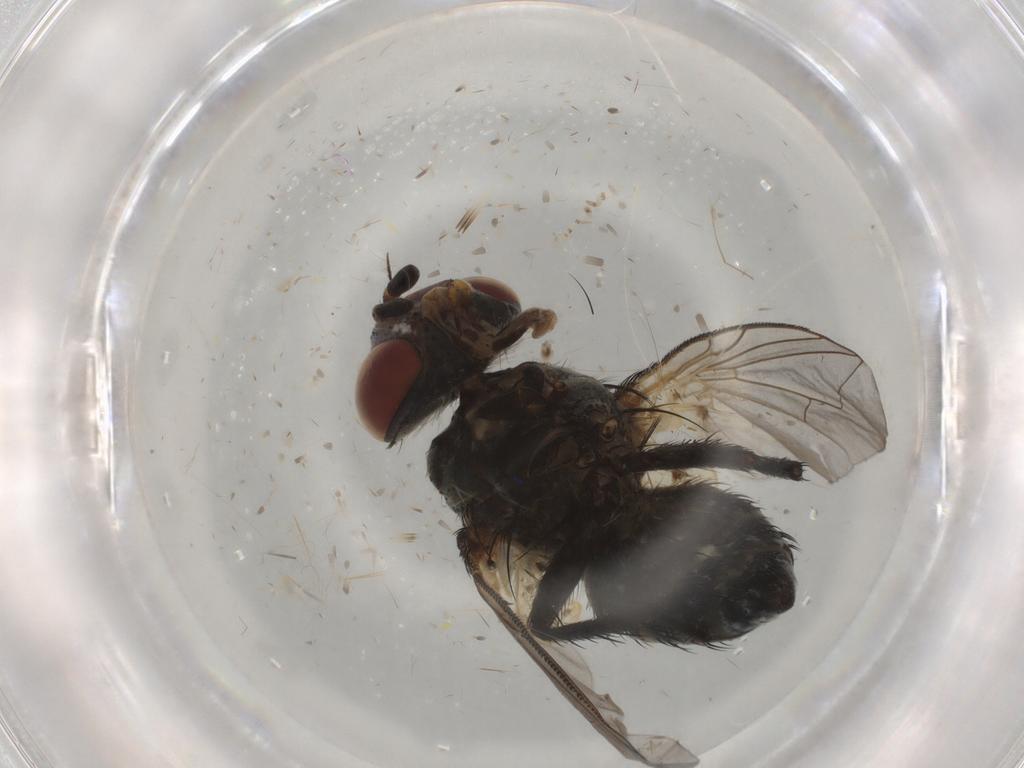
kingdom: Animalia
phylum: Arthropoda
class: Insecta
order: Diptera
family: Tachinidae
